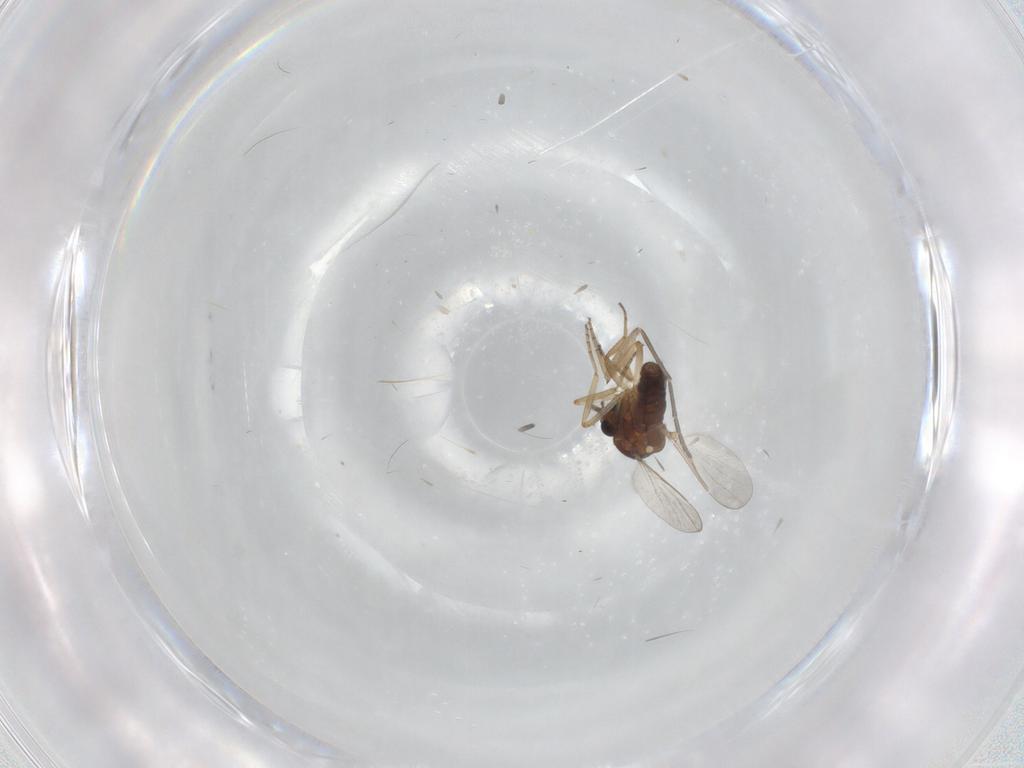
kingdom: Animalia
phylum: Arthropoda
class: Insecta
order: Diptera
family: Sciaridae
